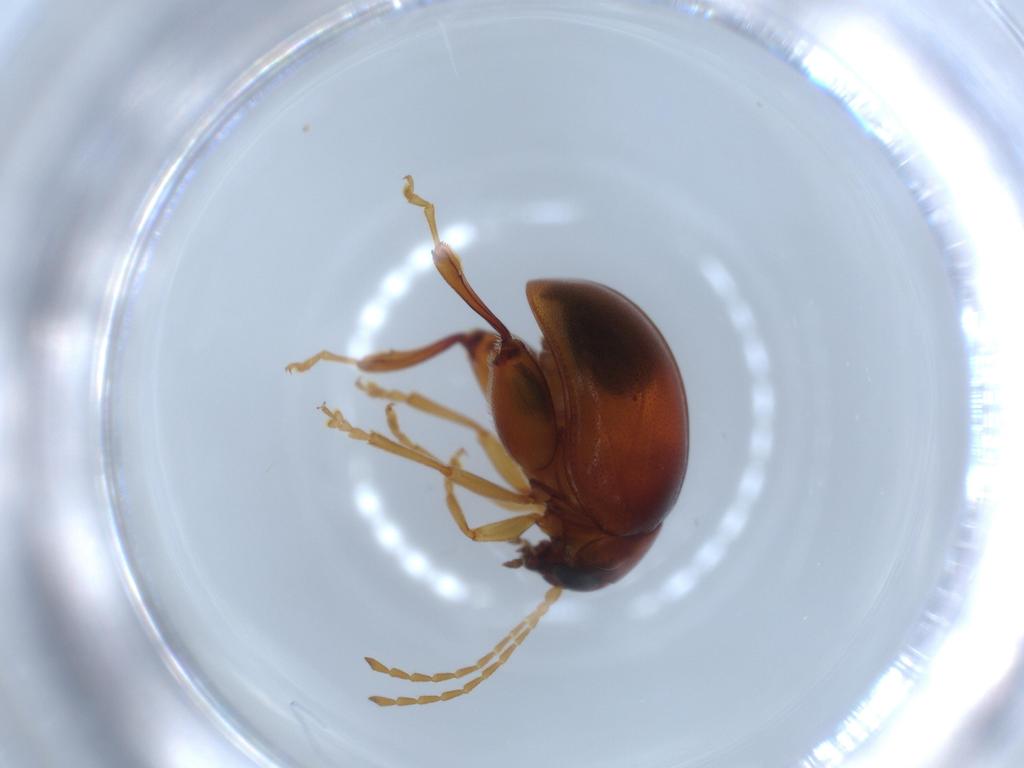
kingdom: Animalia
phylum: Arthropoda
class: Insecta
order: Coleoptera
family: Chrysomelidae
